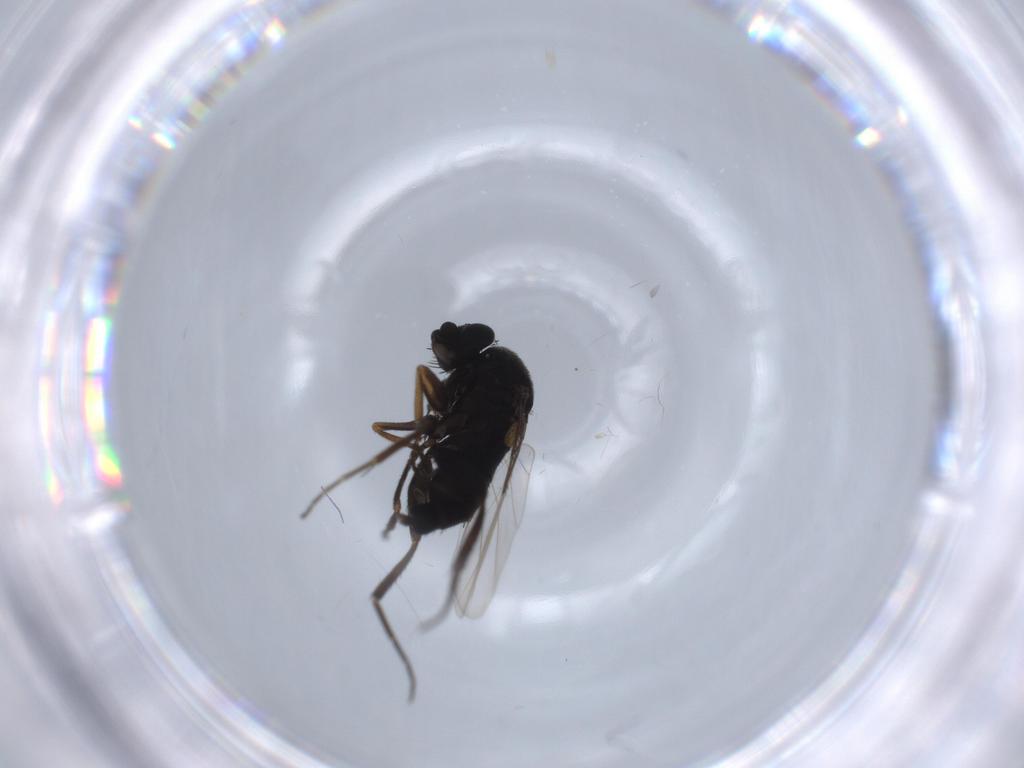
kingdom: Animalia
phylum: Arthropoda
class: Insecta
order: Diptera
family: Phoridae
